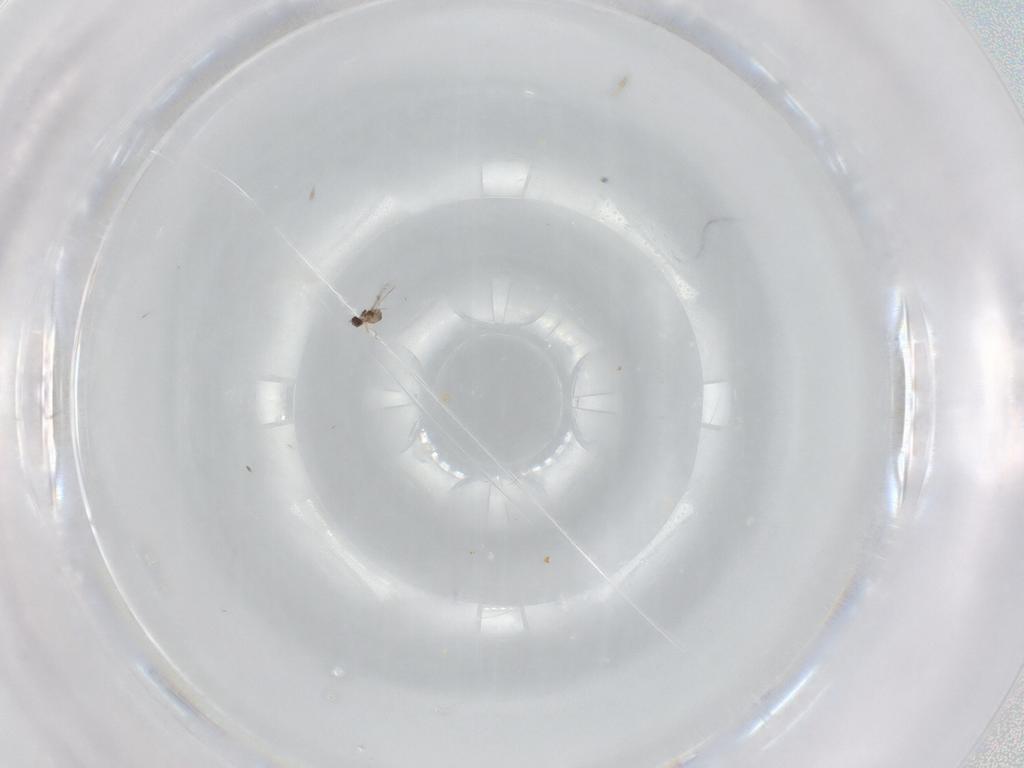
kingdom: Animalia
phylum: Arthropoda
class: Insecta
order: Hymenoptera
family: Mymaridae
